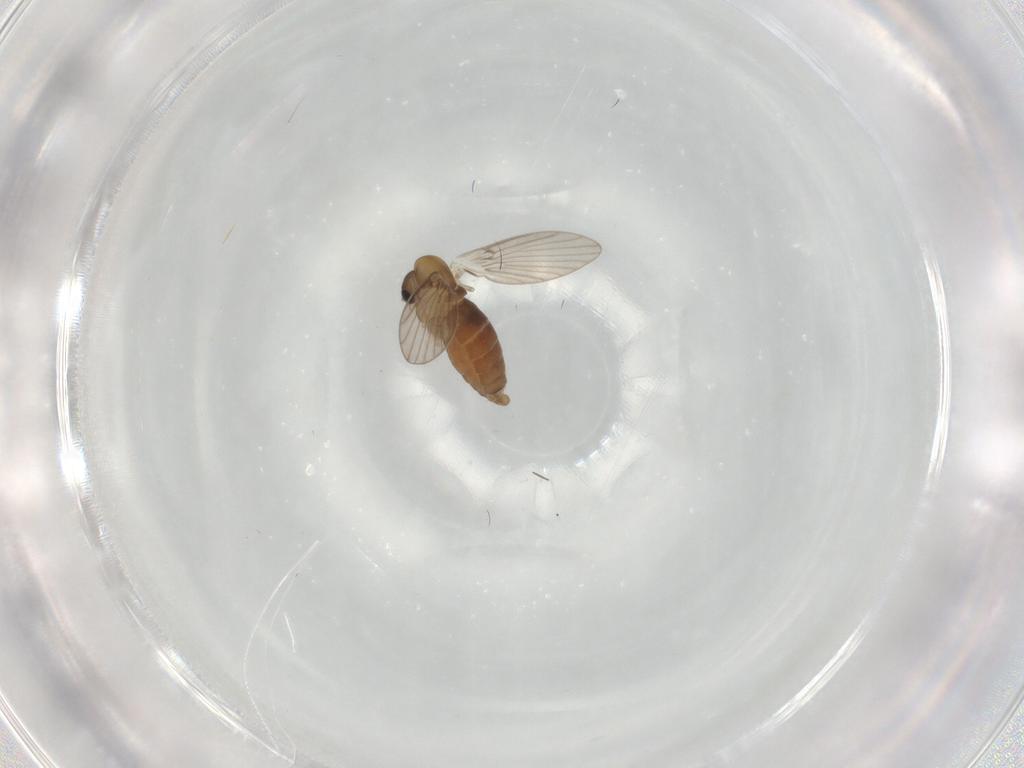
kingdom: Animalia
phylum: Arthropoda
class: Insecta
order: Diptera
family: Psychodidae
